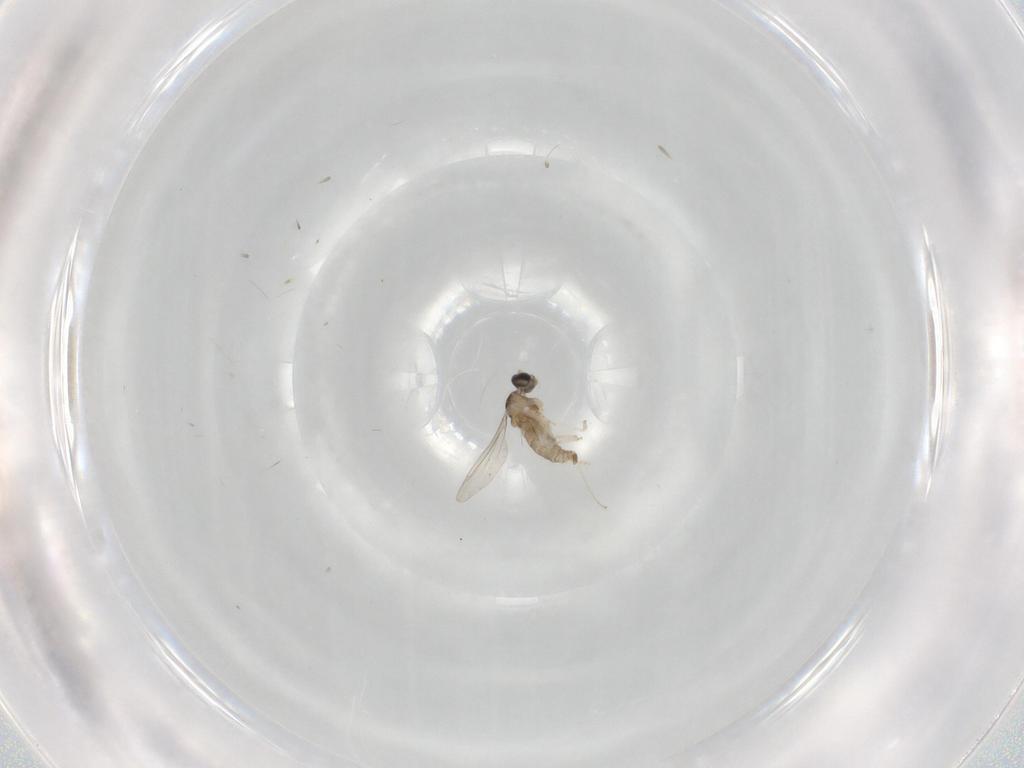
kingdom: Animalia
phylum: Arthropoda
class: Insecta
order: Diptera
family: Cecidomyiidae
